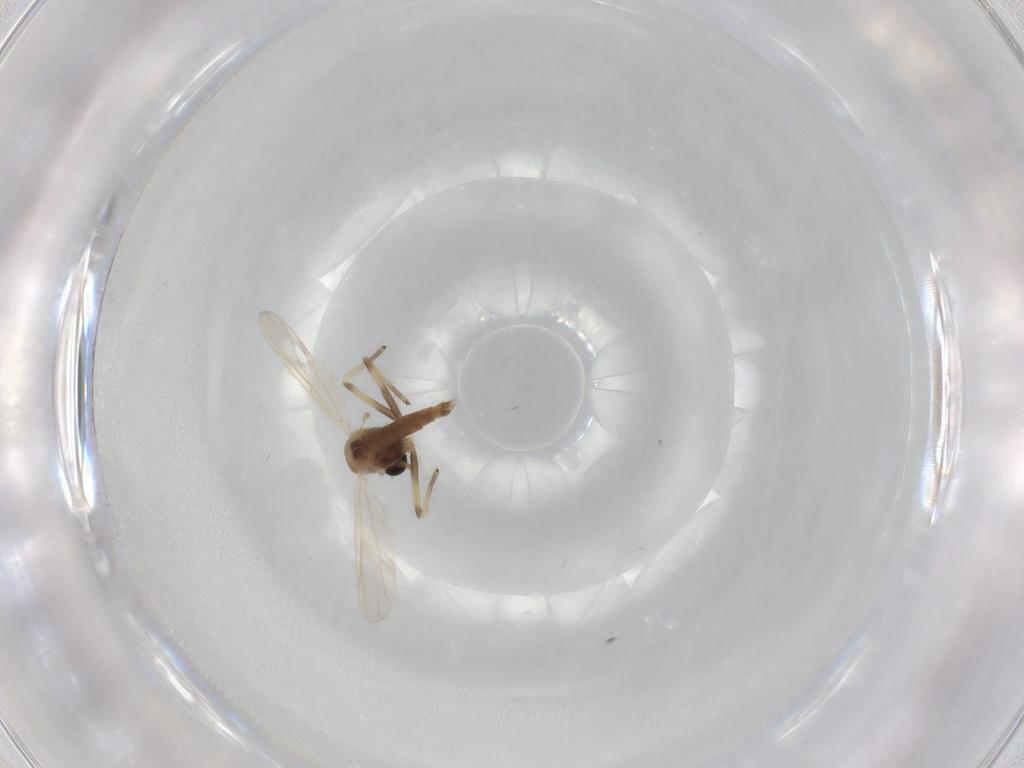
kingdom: Animalia
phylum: Arthropoda
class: Insecta
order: Diptera
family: Chironomidae
